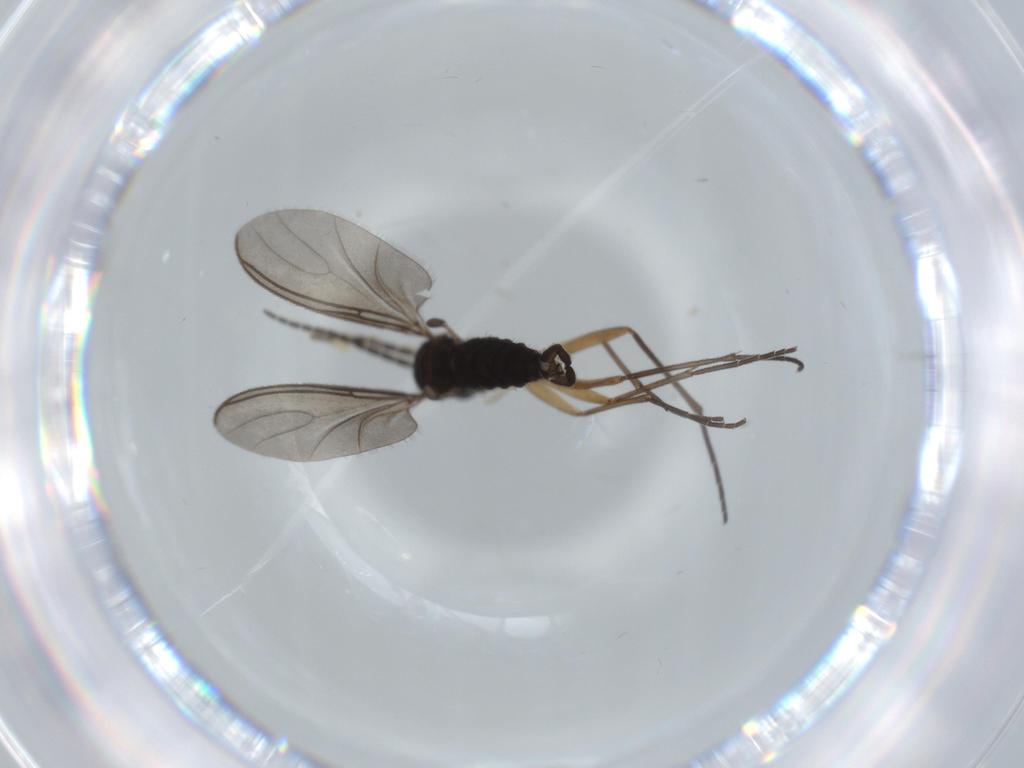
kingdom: Animalia
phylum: Arthropoda
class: Insecta
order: Diptera
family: Sciaridae
